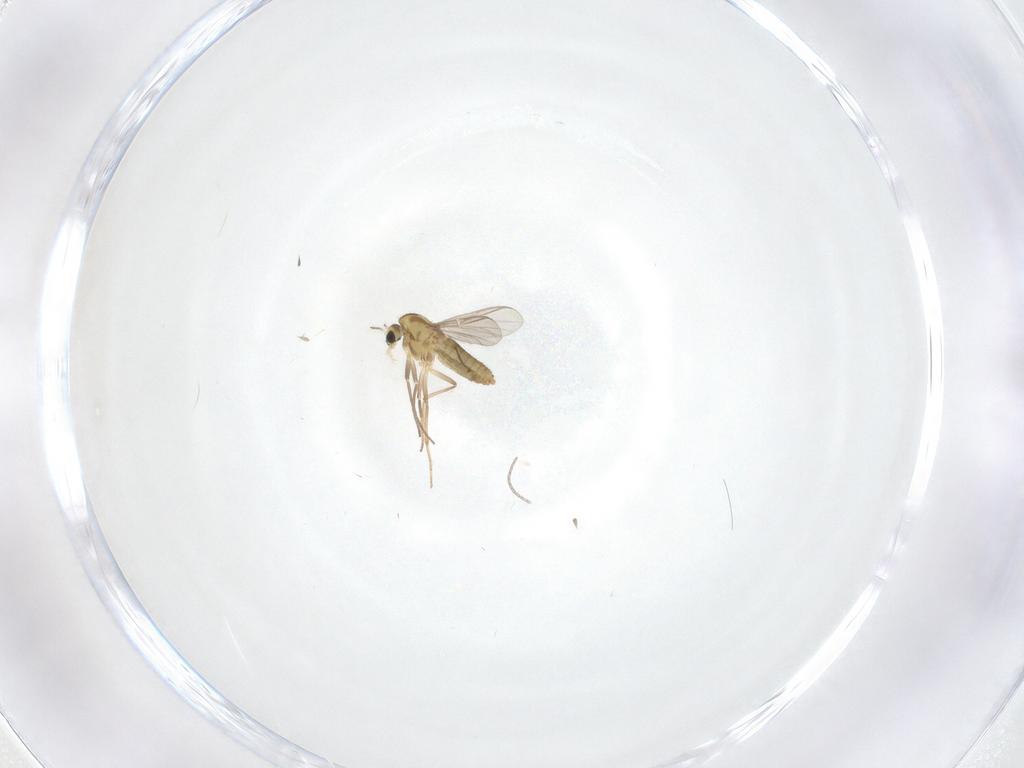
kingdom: Animalia
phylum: Arthropoda
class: Insecta
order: Diptera
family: Chironomidae
